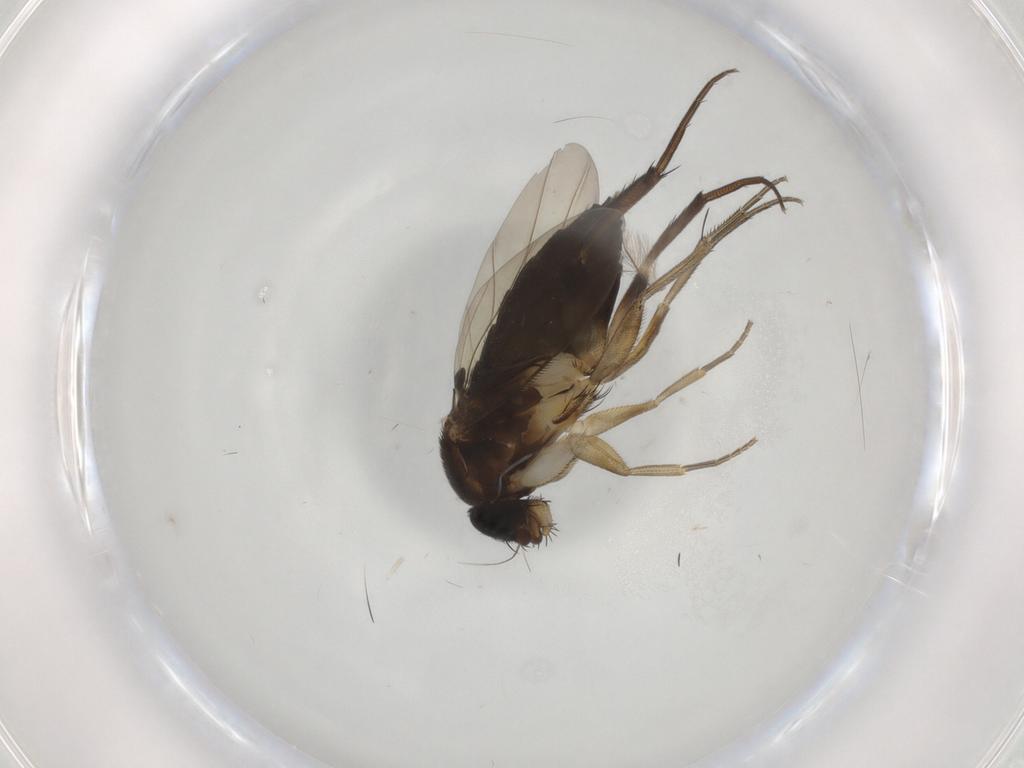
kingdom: Animalia
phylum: Arthropoda
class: Insecta
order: Diptera
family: Phoridae
